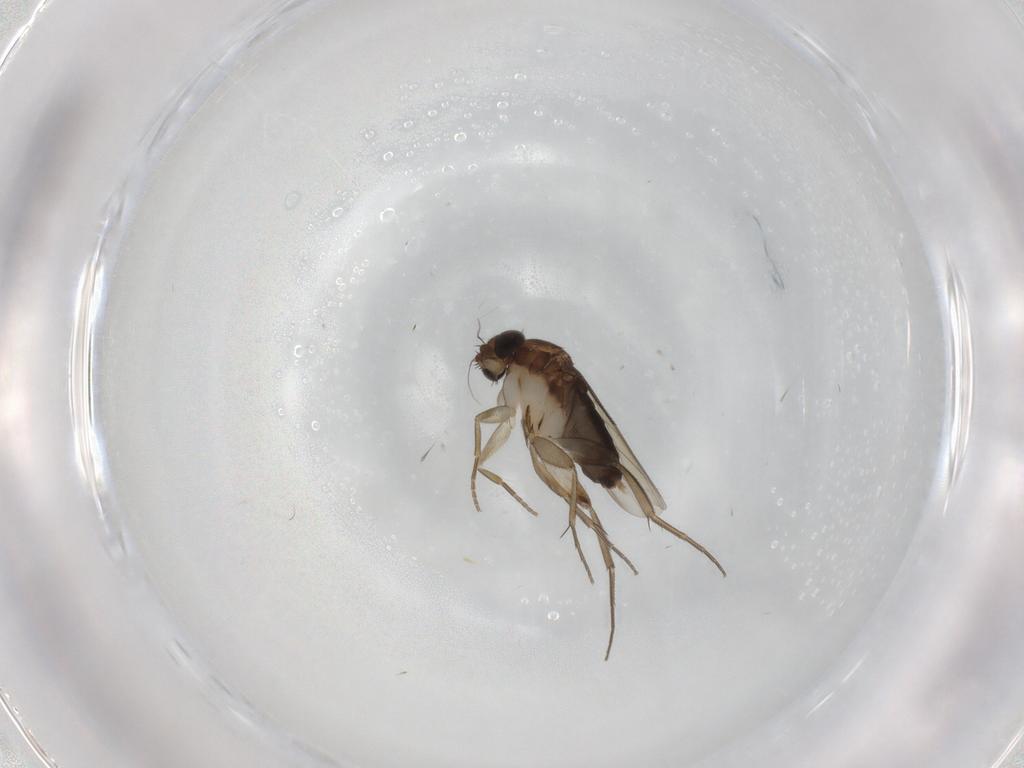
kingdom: Animalia
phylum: Arthropoda
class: Insecta
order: Diptera
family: Phoridae
